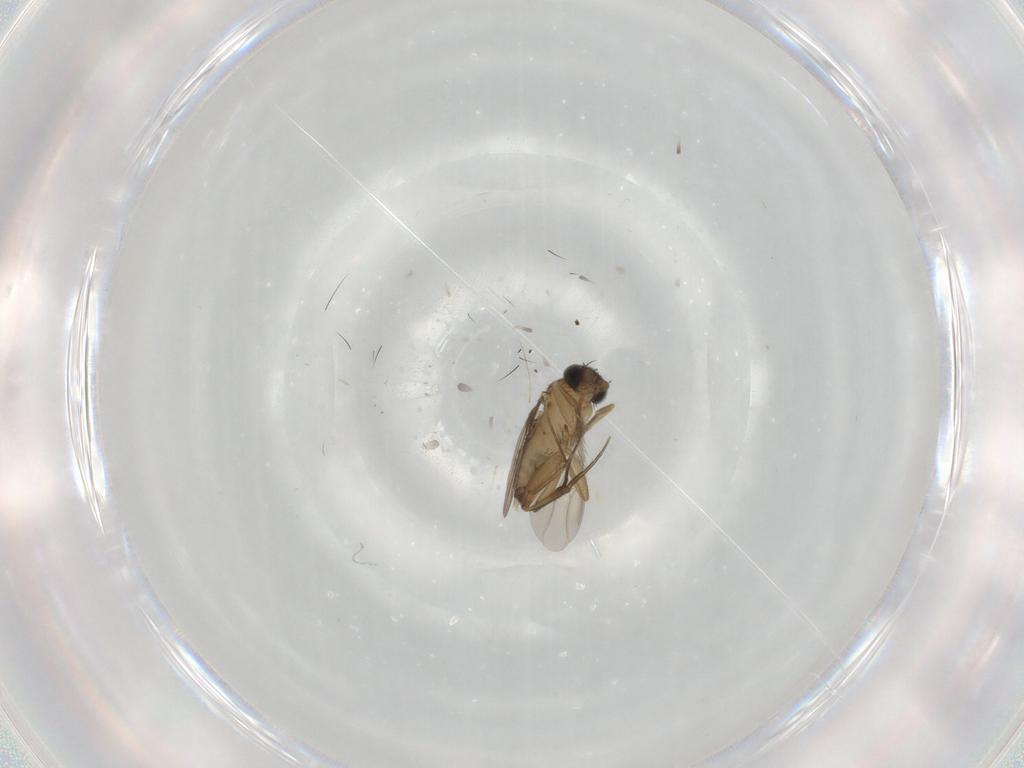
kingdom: Animalia
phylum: Arthropoda
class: Insecta
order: Diptera
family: Phoridae
